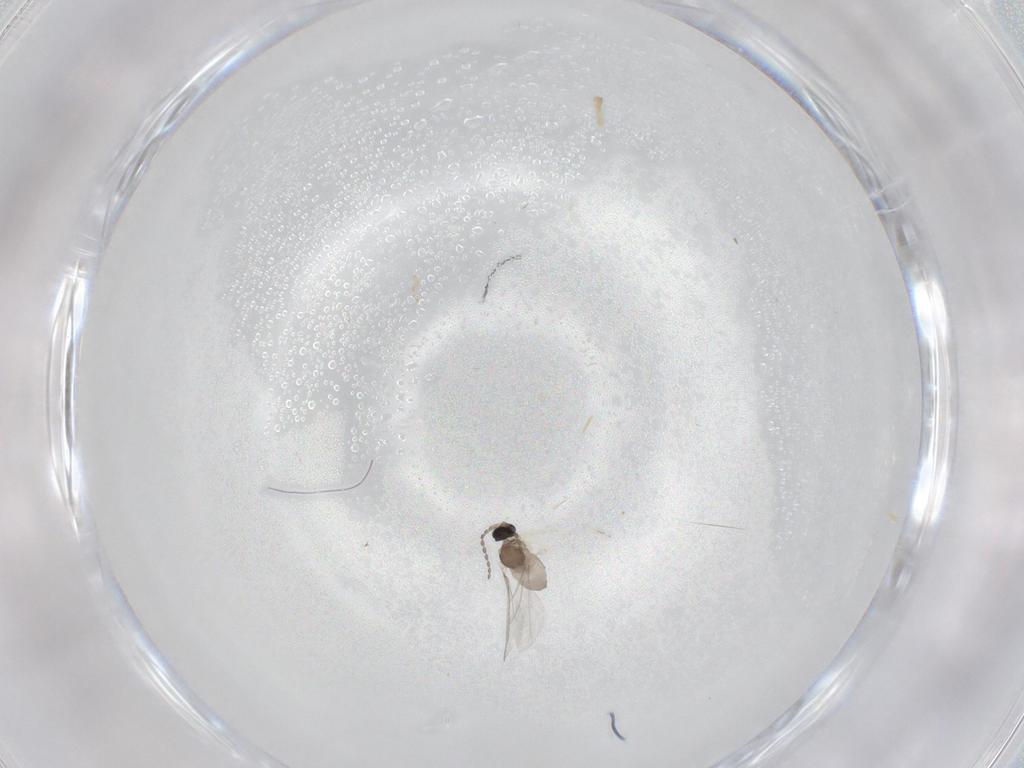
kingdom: Animalia
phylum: Arthropoda
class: Insecta
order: Diptera
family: Cecidomyiidae
